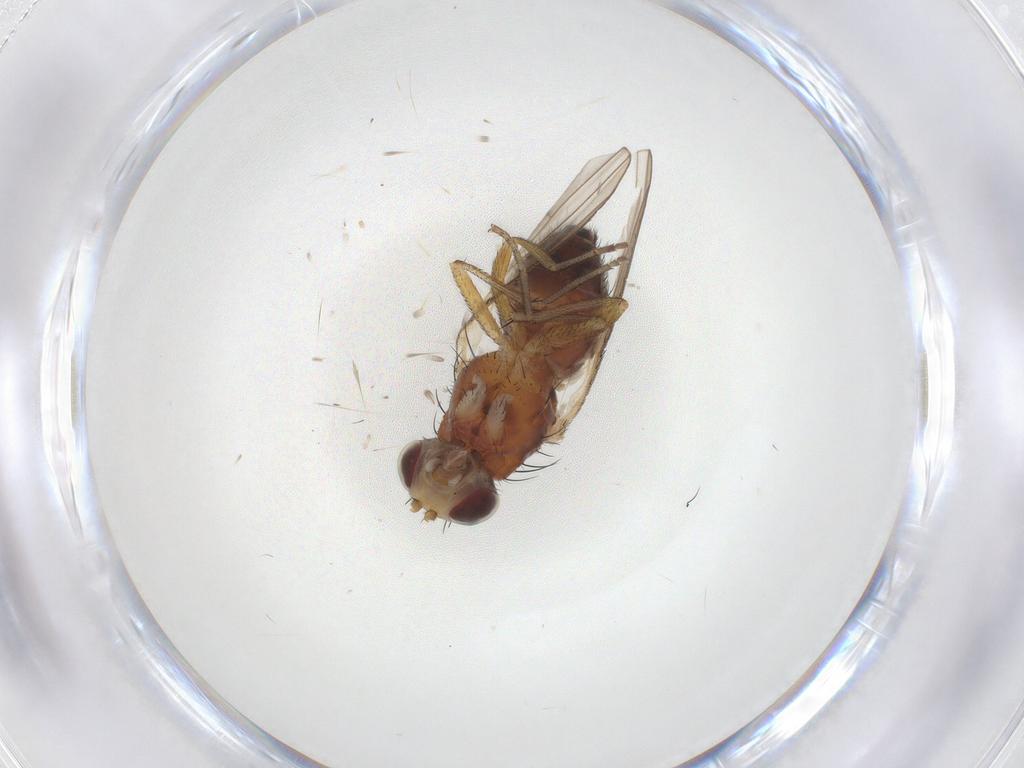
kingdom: Animalia
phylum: Arthropoda
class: Insecta
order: Diptera
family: Heleomyzidae
